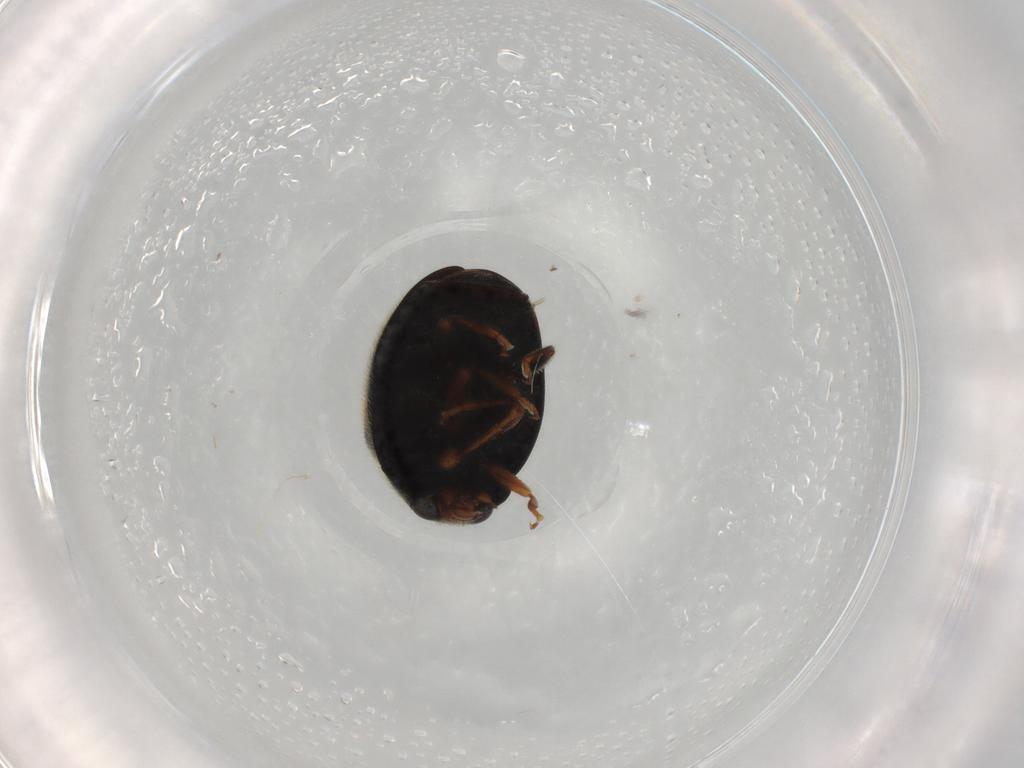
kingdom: Animalia
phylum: Arthropoda
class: Insecta
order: Coleoptera
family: Coccinellidae
